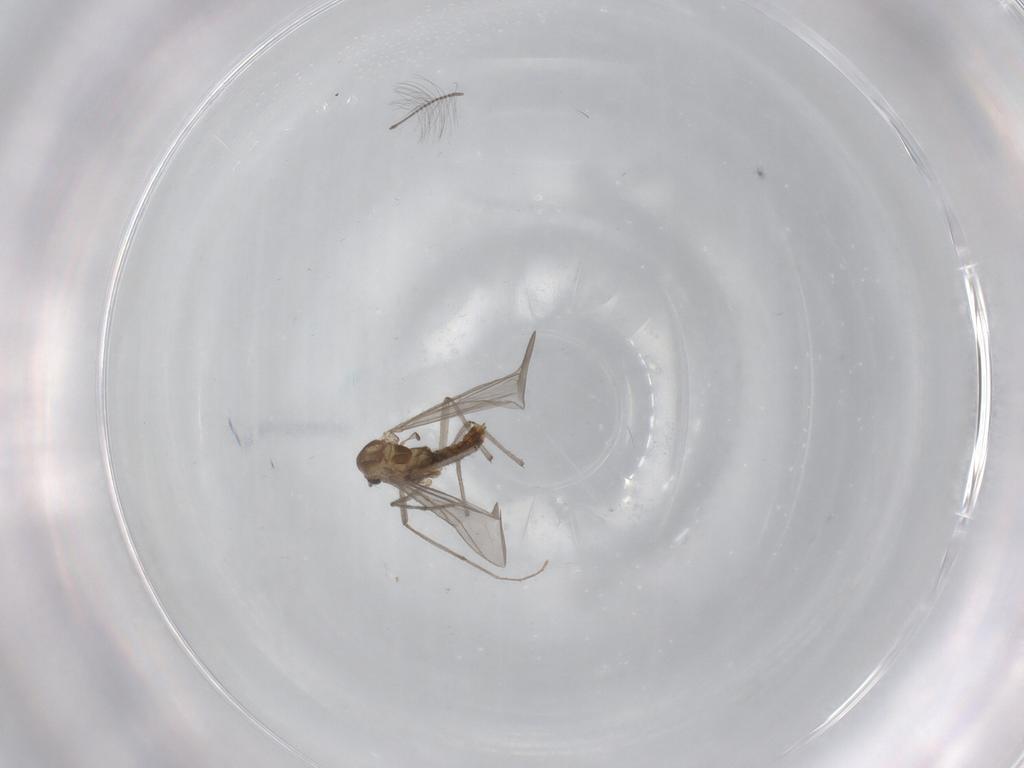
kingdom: Animalia
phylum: Arthropoda
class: Insecta
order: Diptera
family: Chironomidae
